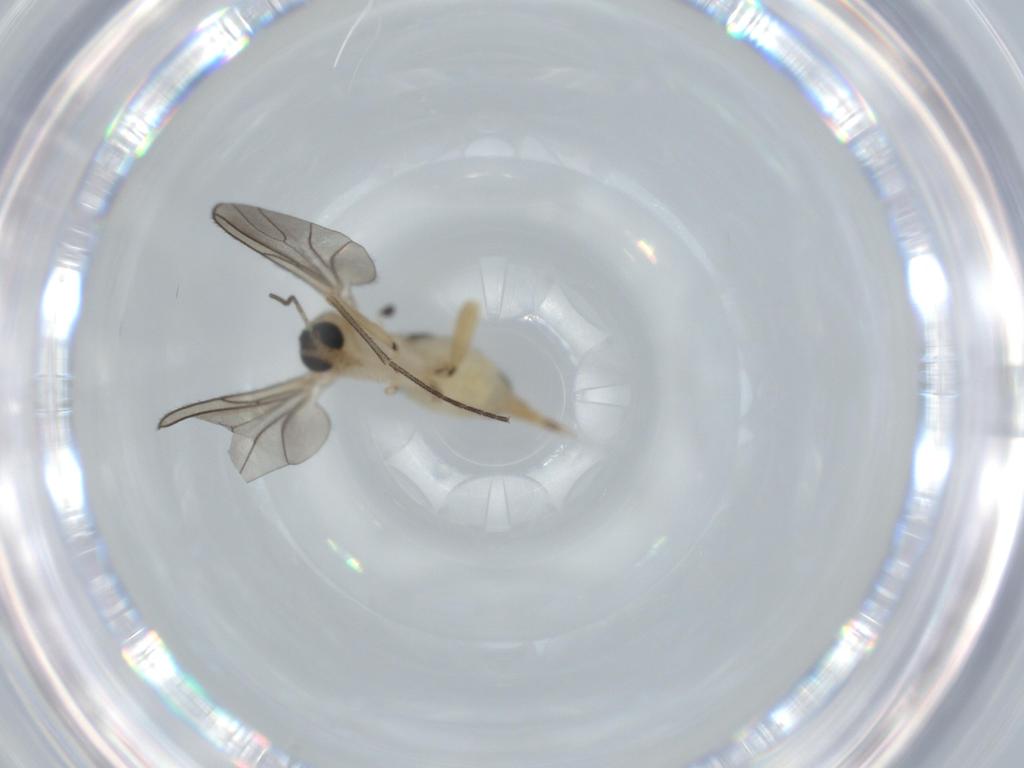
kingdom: Animalia
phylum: Arthropoda
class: Insecta
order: Diptera
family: Sciaridae
